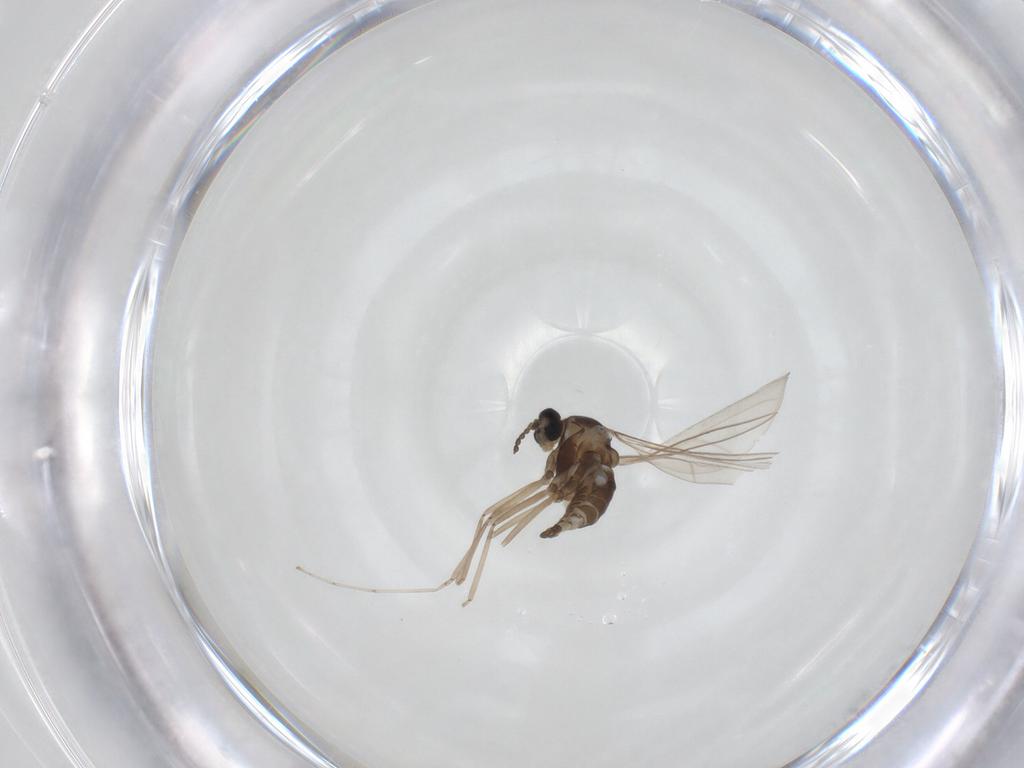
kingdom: Animalia
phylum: Arthropoda
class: Insecta
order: Diptera
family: Cecidomyiidae
